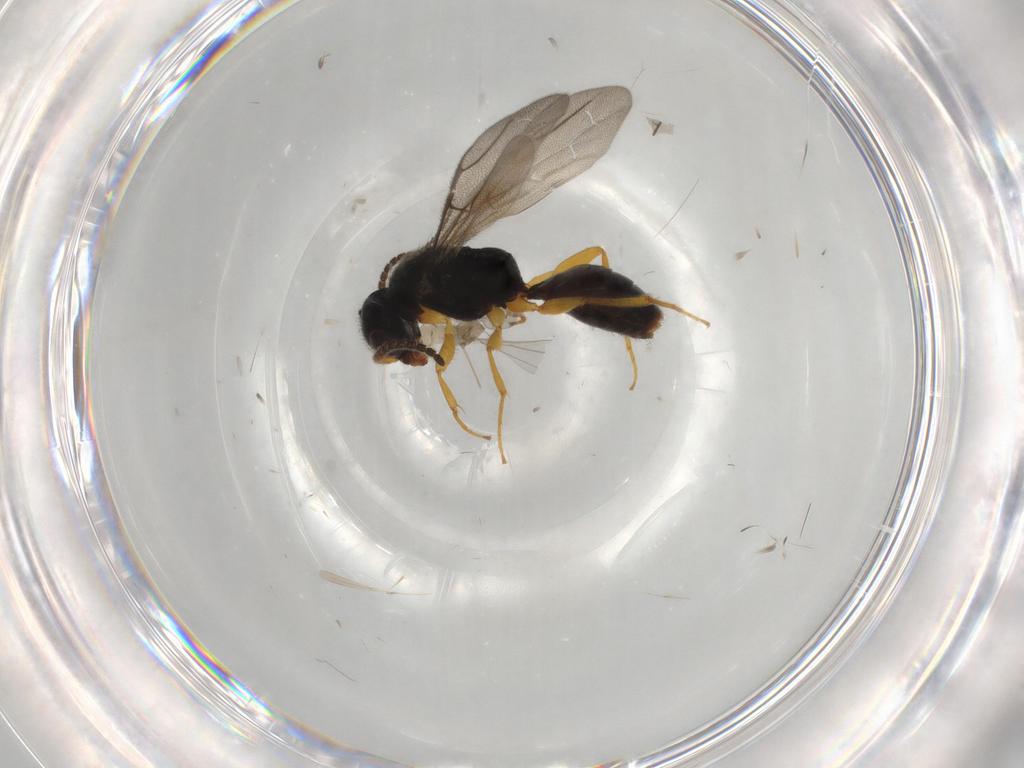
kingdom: Animalia
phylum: Arthropoda
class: Insecta
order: Hymenoptera
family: Bethylidae
